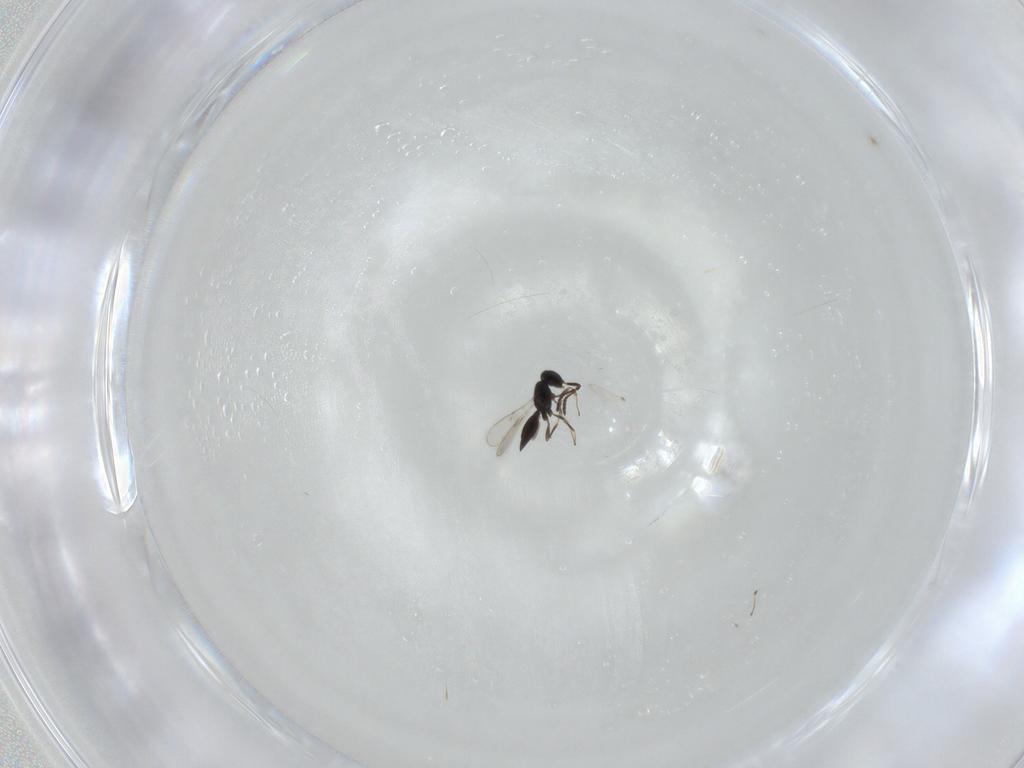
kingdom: Animalia
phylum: Arthropoda
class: Insecta
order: Hymenoptera
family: Scelionidae
